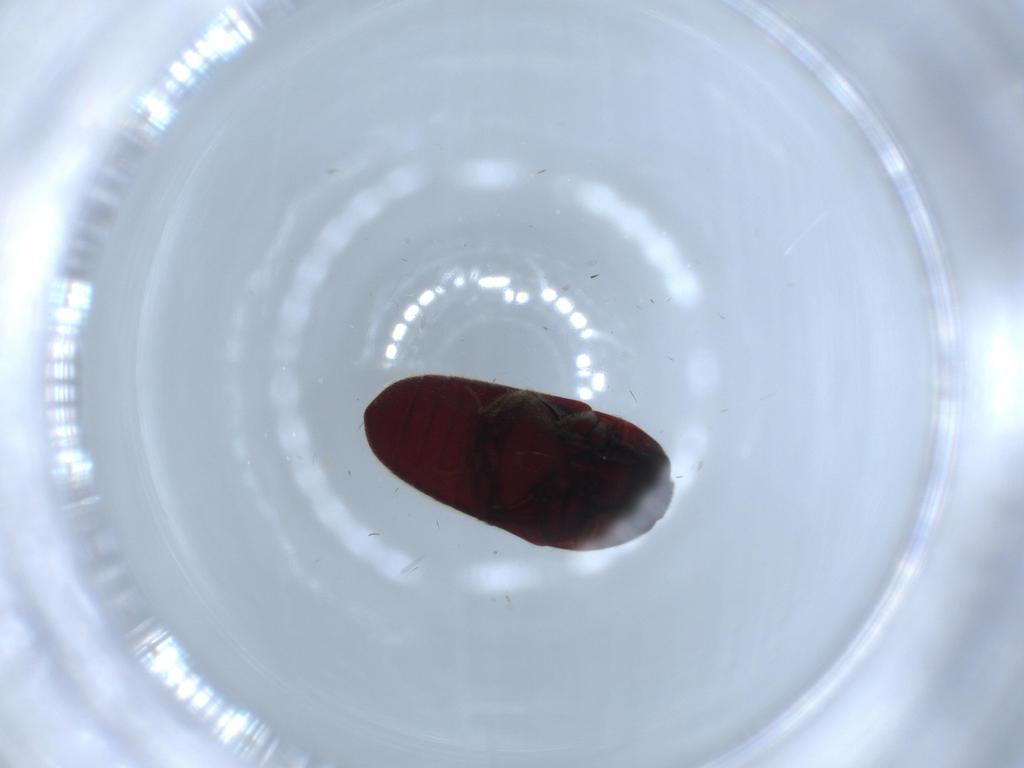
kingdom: Animalia
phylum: Arthropoda
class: Insecta
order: Coleoptera
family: Throscidae
